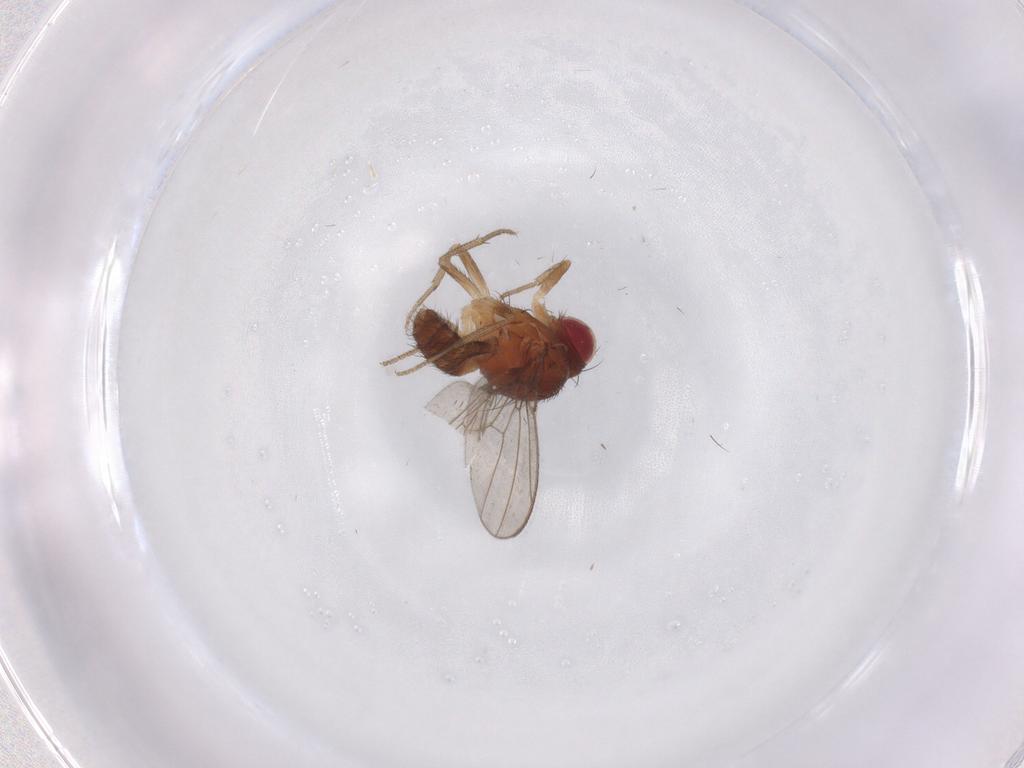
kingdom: Animalia
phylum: Arthropoda
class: Insecta
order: Diptera
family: Drosophilidae
